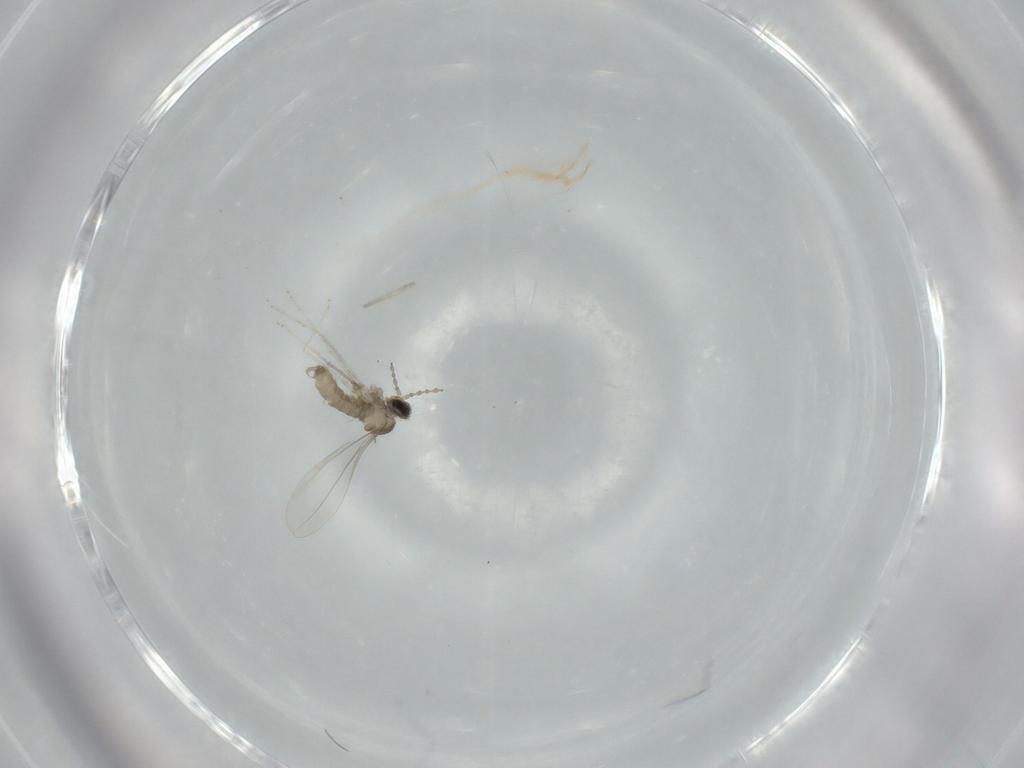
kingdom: Animalia
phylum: Arthropoda
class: Insecta
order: Diptera
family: Cecidomyiidae
